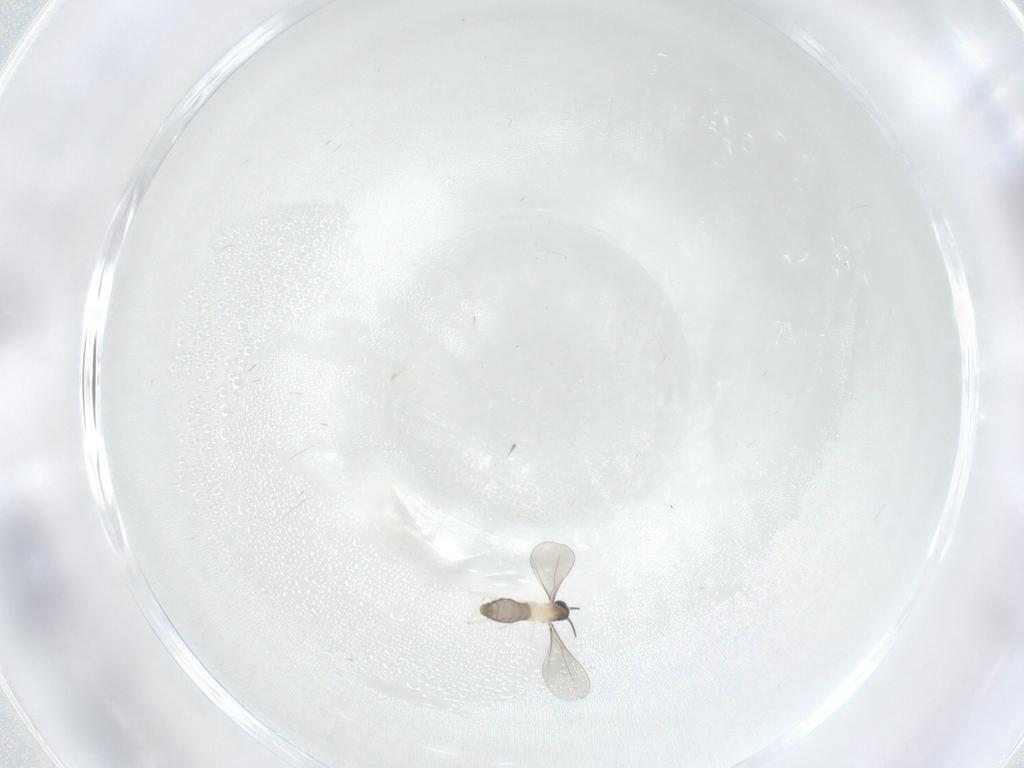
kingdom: Animalia
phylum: Arthropoda
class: Insecta
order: Diptera
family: Cecidomyiidae
